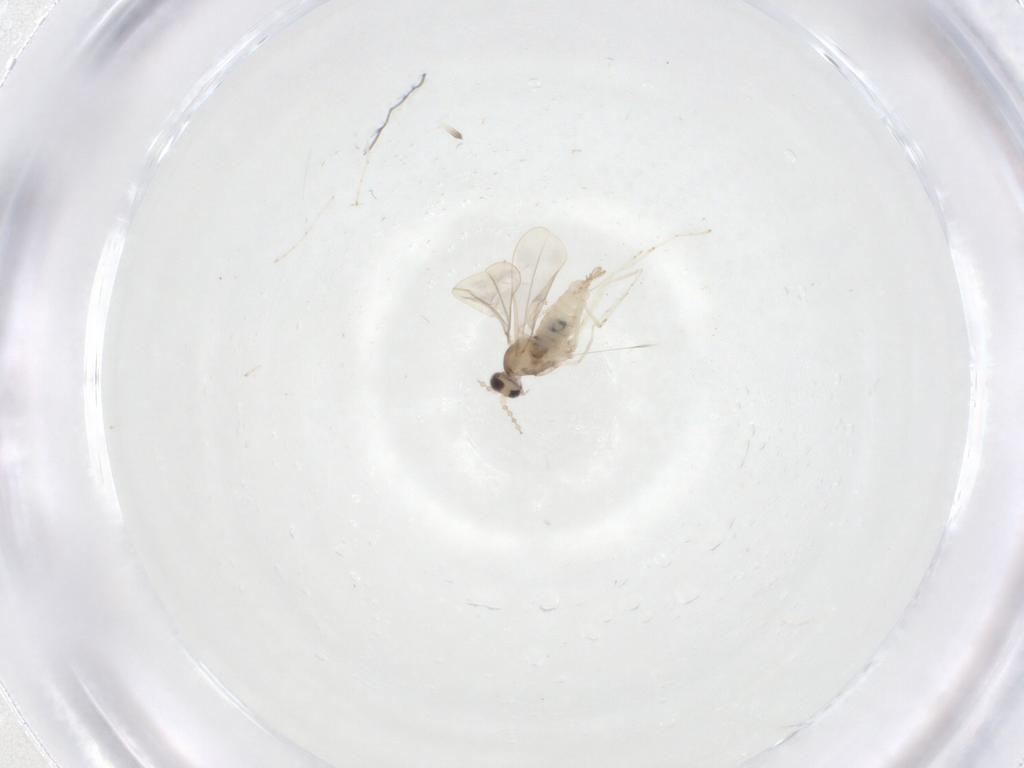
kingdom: Animalia
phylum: Arthropoda
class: Insecta
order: Diptera
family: Cecidomyiidae
